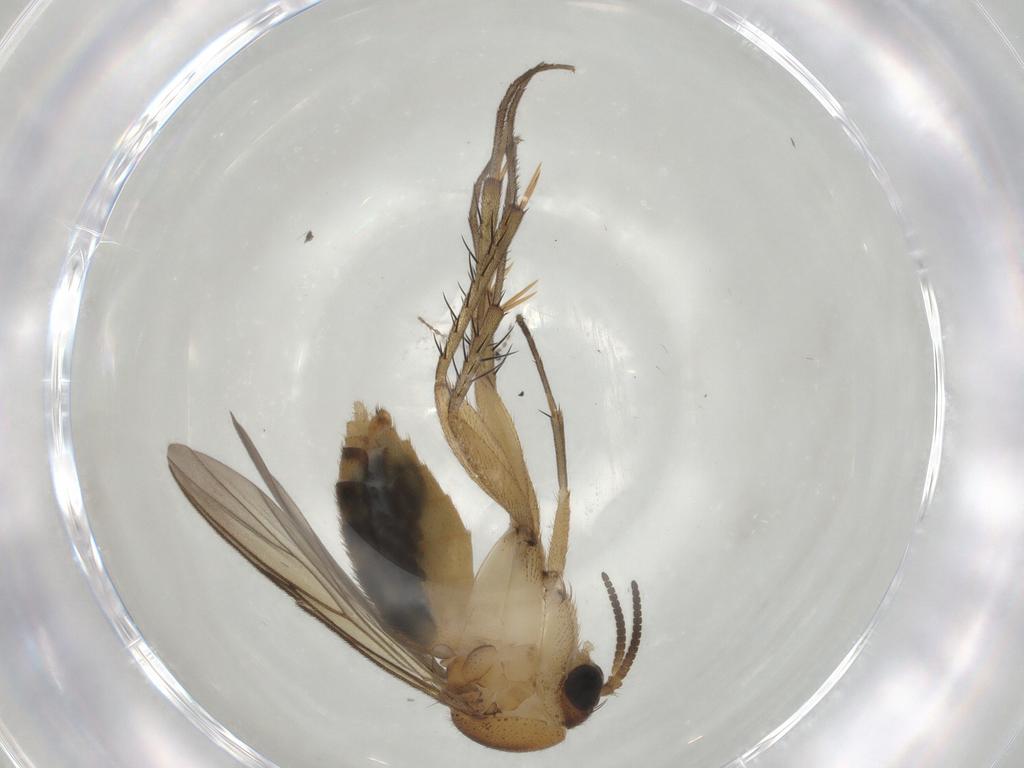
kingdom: Animalia
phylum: Arthropoda
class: Insecta
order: Diptera
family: Mycetophilidae
